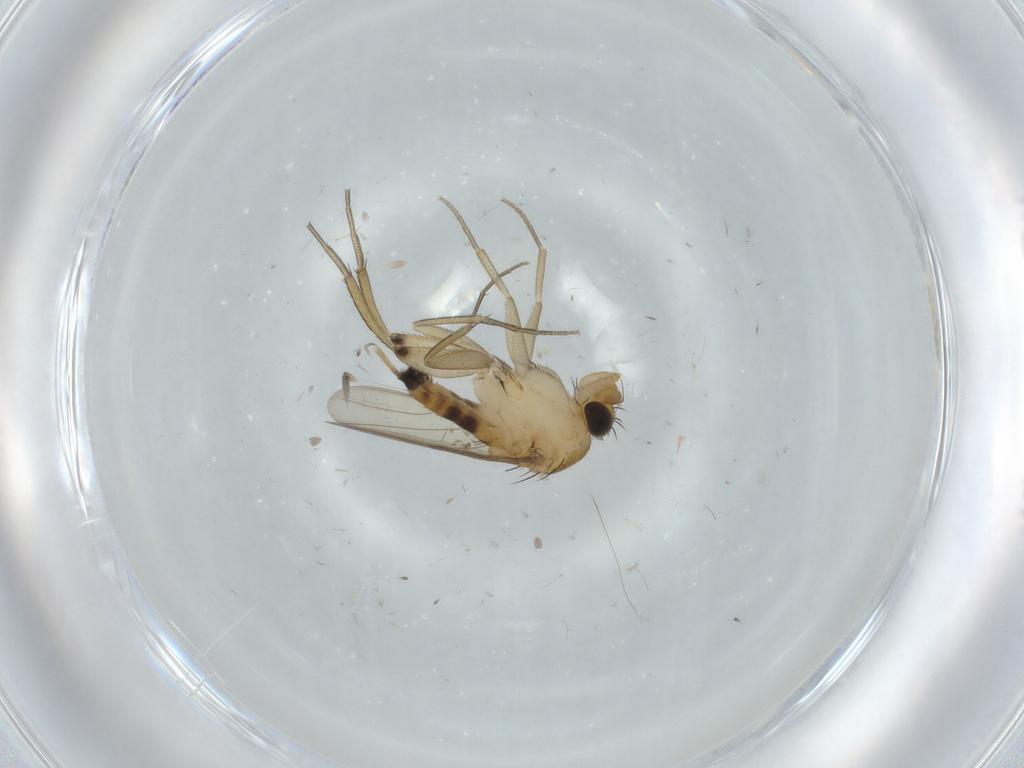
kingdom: Animalia
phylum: Arthropoda
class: Insecta
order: Diptera
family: Phoridae
